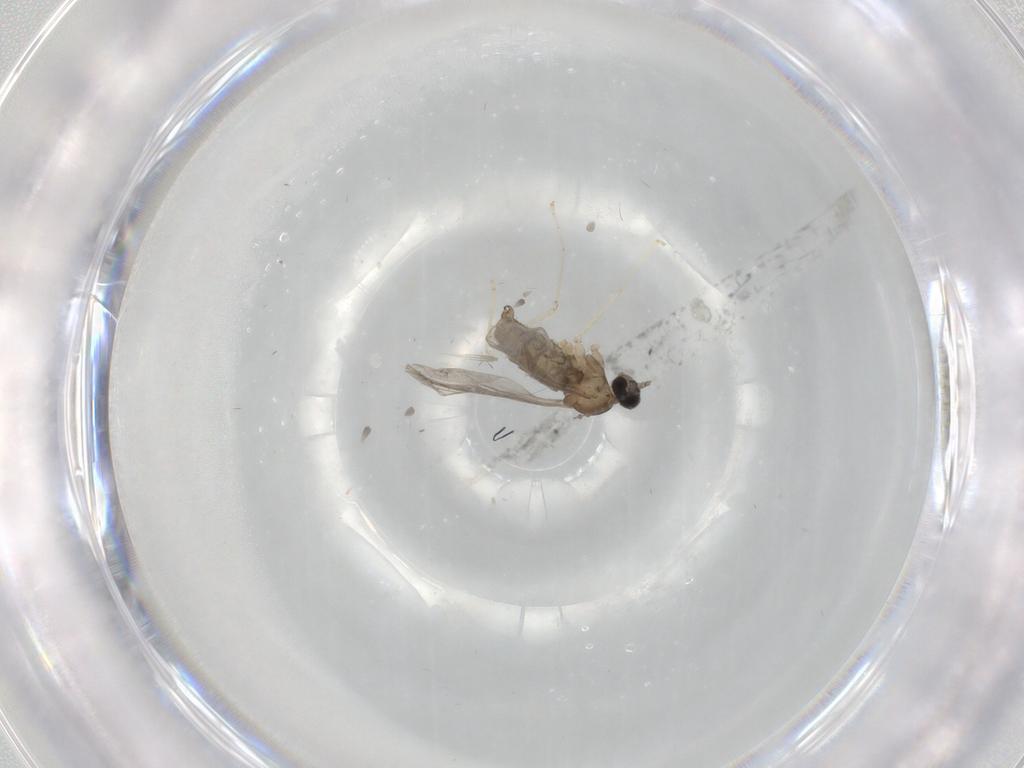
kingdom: Animalia
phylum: Arthropoda
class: Insecta
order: Diptera
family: Cecidomyiidae
